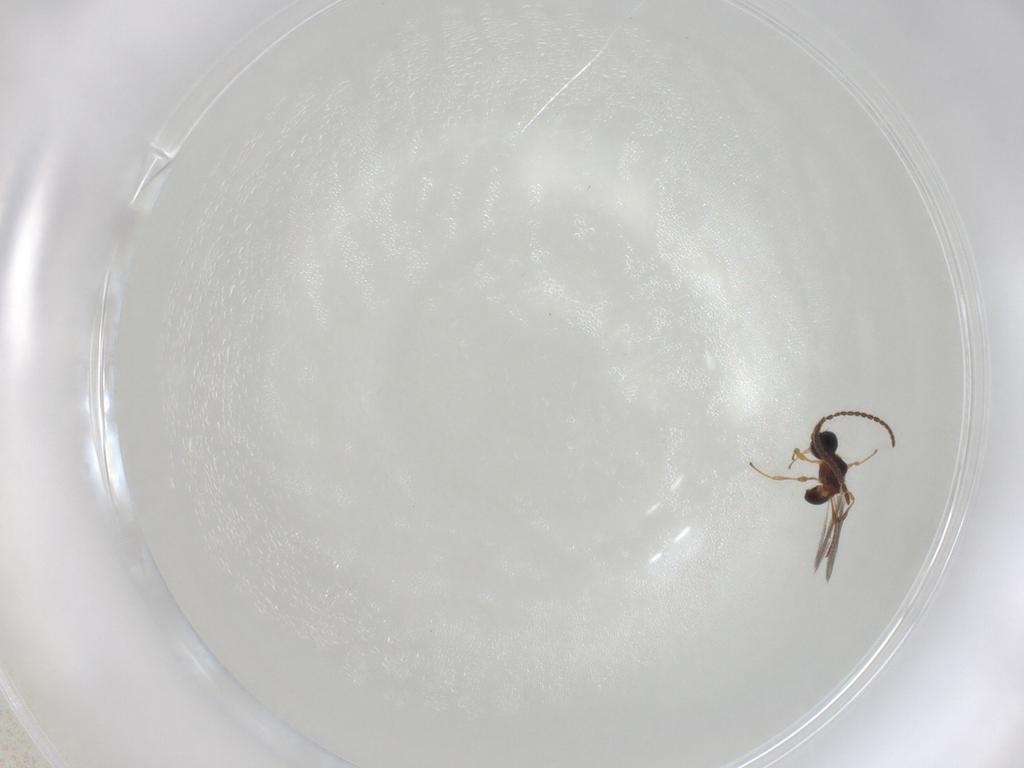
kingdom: Animalia
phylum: Arthropoda
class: Insecta
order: Hymenoptera
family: Diapriidae
